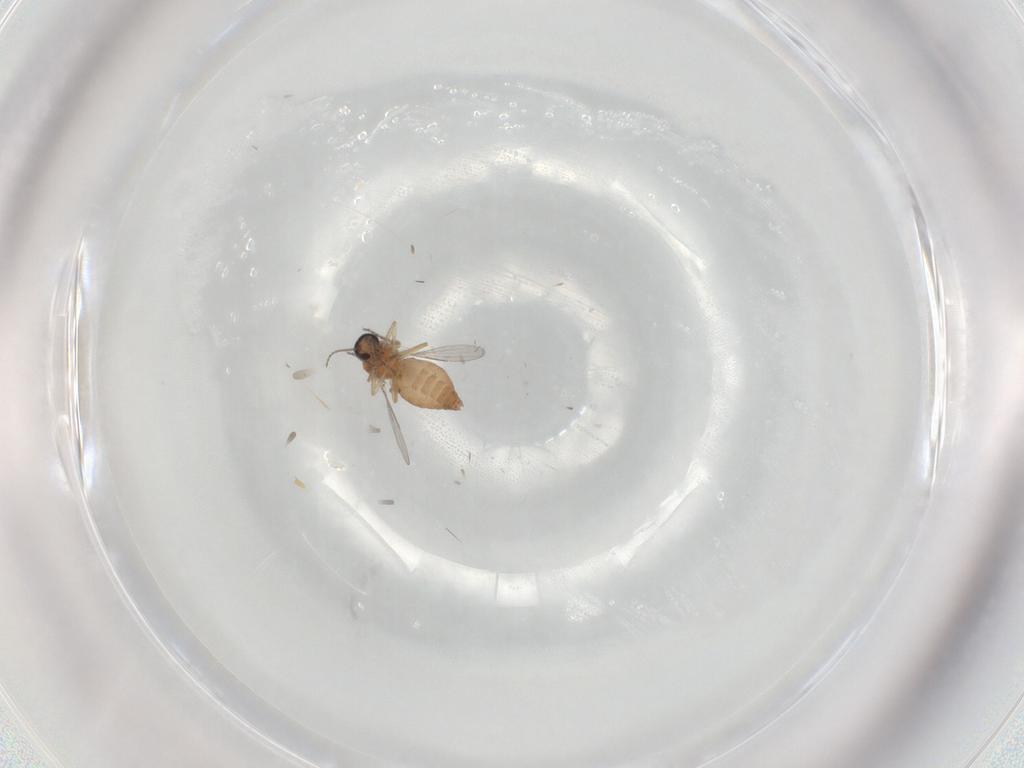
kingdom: Animalia
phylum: Arthropoda
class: Insecta
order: Diptera
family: Ceratopogonidae
